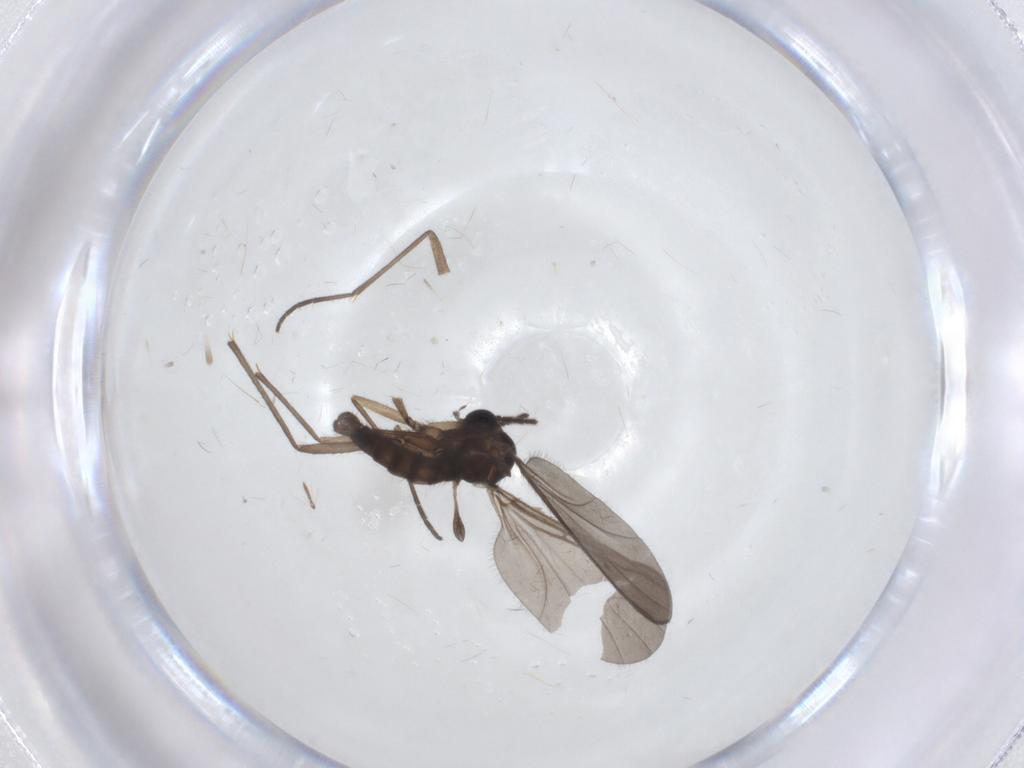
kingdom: Animalia
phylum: Arthropoda
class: Insecta
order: Diptera
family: Sciaridae
